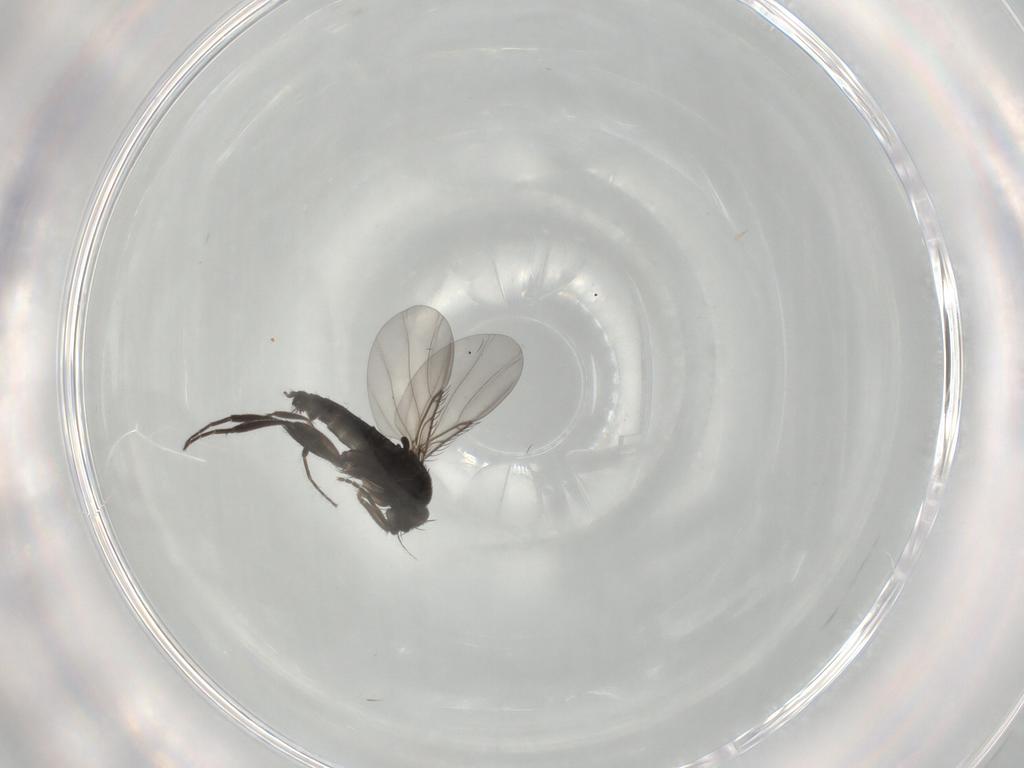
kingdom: Animalia
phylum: Arthropoda
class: Insecta
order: Diptera
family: Phoridae
